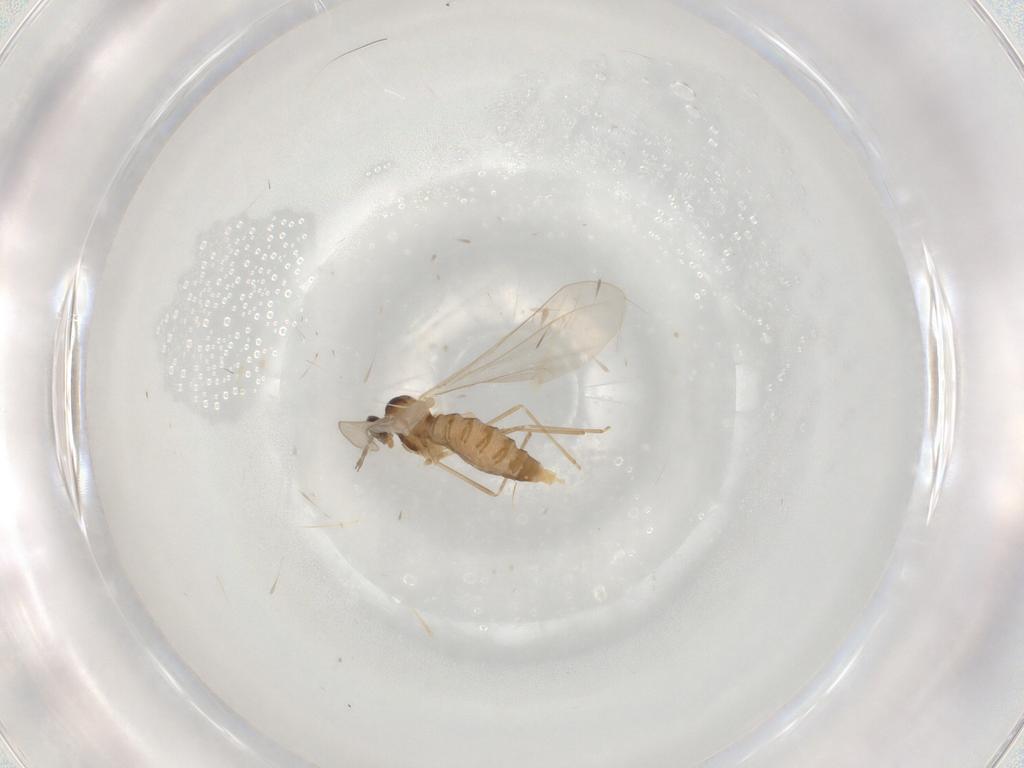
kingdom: Animalia
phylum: Arthropoda
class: Insecta
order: Diptera
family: Cecidomyiidae
